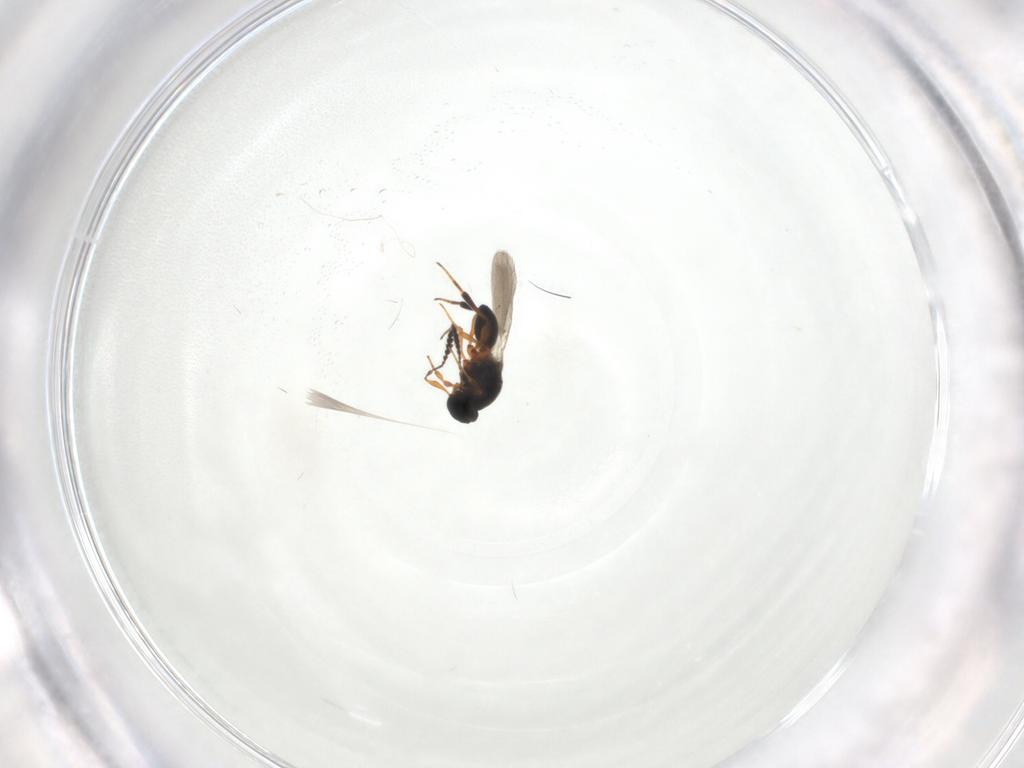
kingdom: Animalia
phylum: Arthropoda
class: Insecta
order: Hymenoptera
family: Platygastridae
